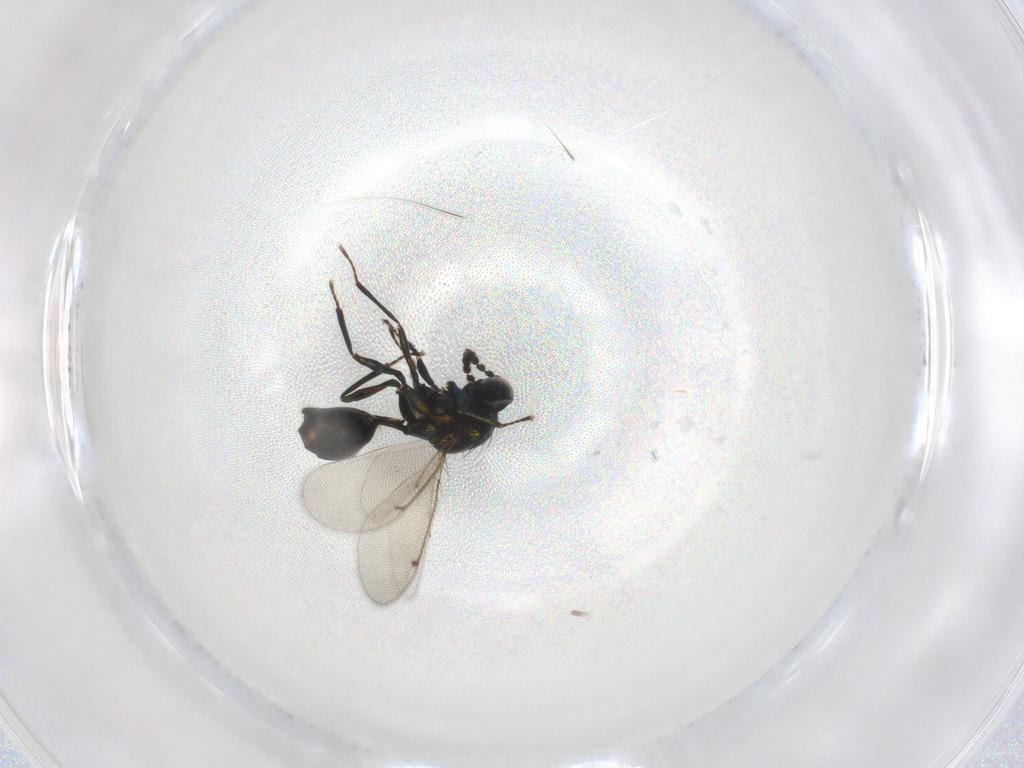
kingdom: Animalia
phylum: Arthropoda
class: Insecta
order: Hymenoptera
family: Eulophidae
